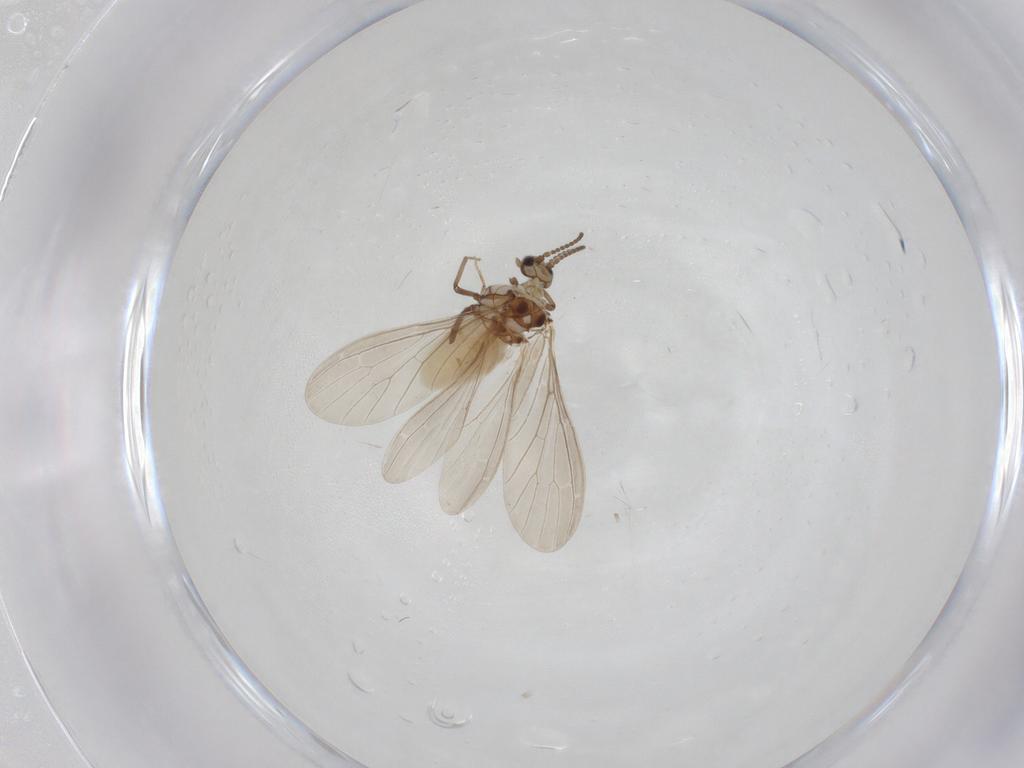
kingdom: Animalia
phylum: Arthropoda
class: Insecta
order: Neuroptera
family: Coniopterygidae
